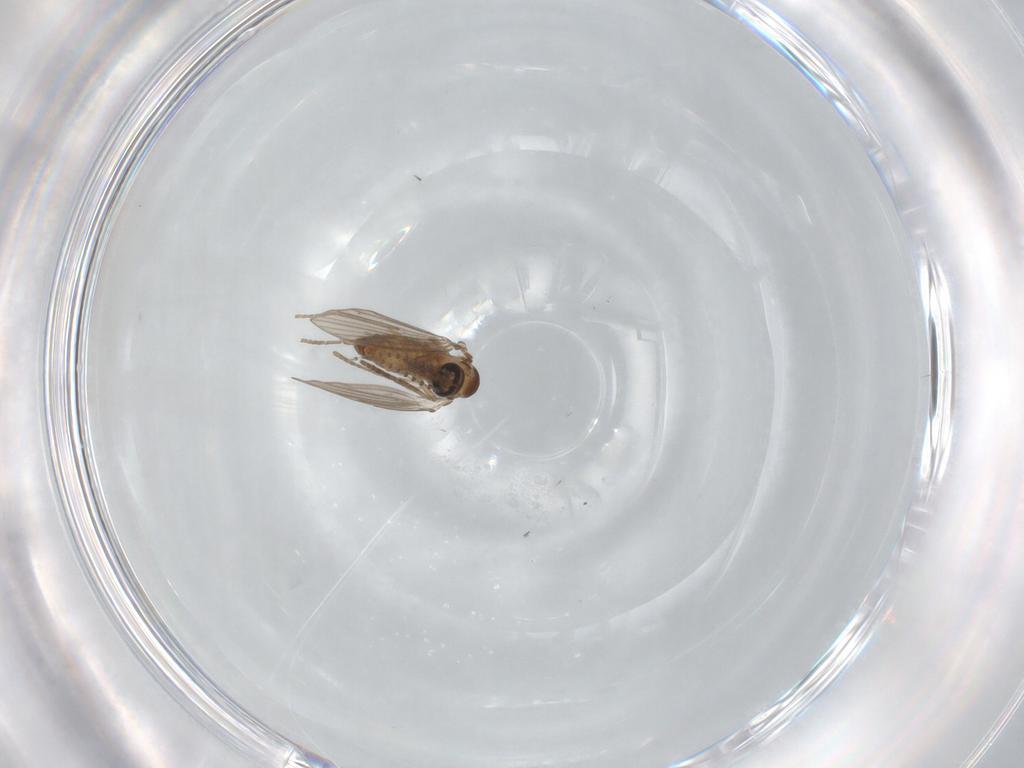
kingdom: Animalia
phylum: Arthropoda
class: Insecta
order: Diptera
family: Psychodidae
